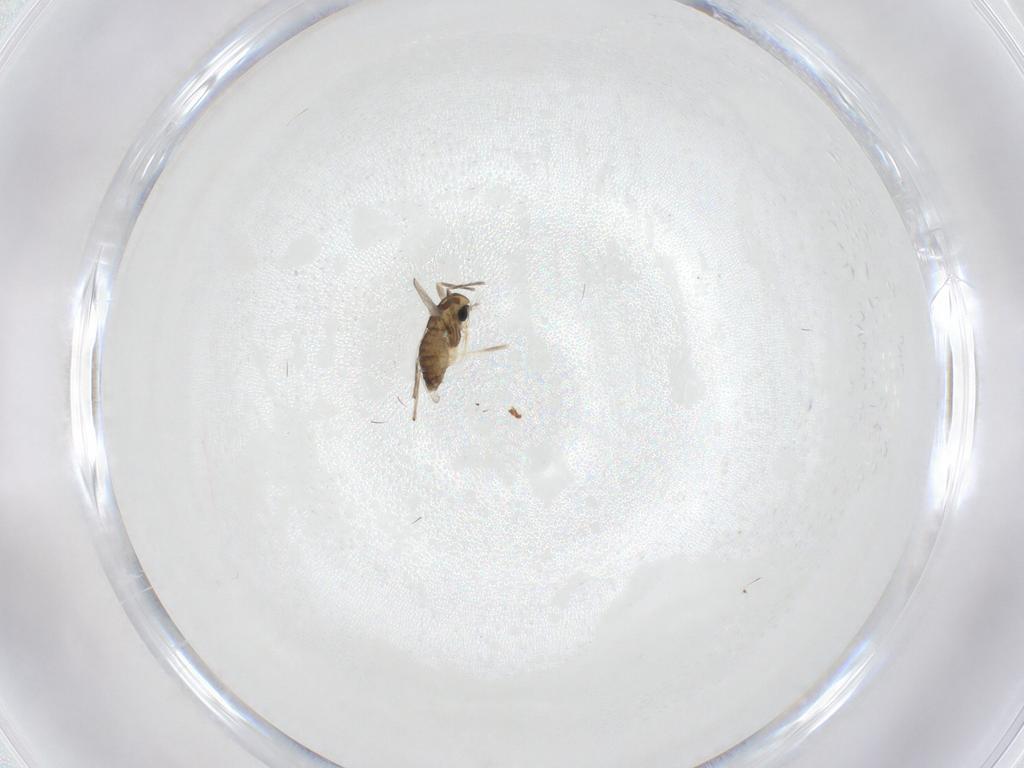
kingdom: Animalia
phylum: Arthropoda
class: Insecta
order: Diptera
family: Chironomidae
